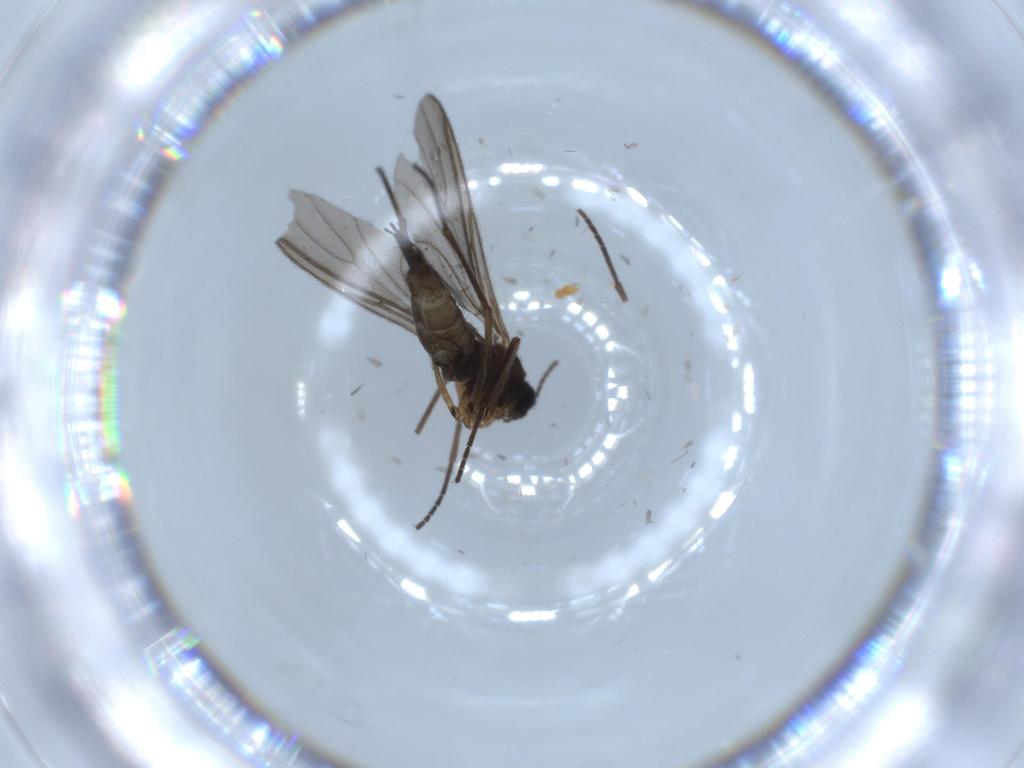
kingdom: Animalia
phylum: Arthropoda
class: Insecta
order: Diptera
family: Sciaridae
